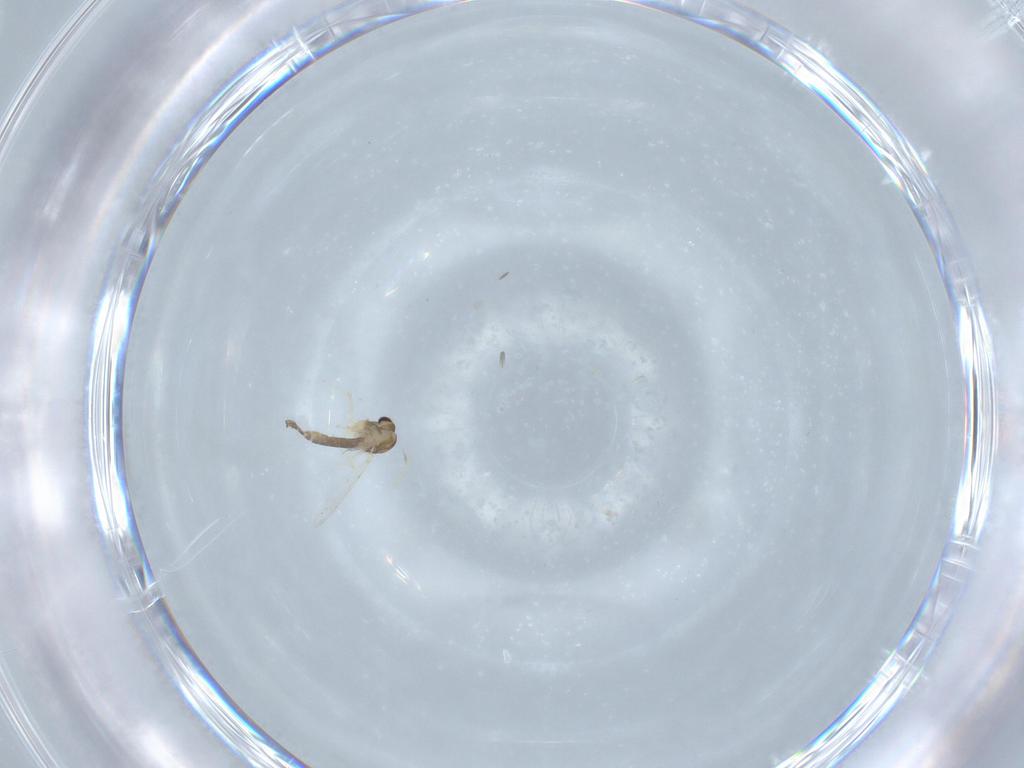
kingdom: Animalia
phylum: Arthropoda
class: Insecta
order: Diptera
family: Chironomidae
